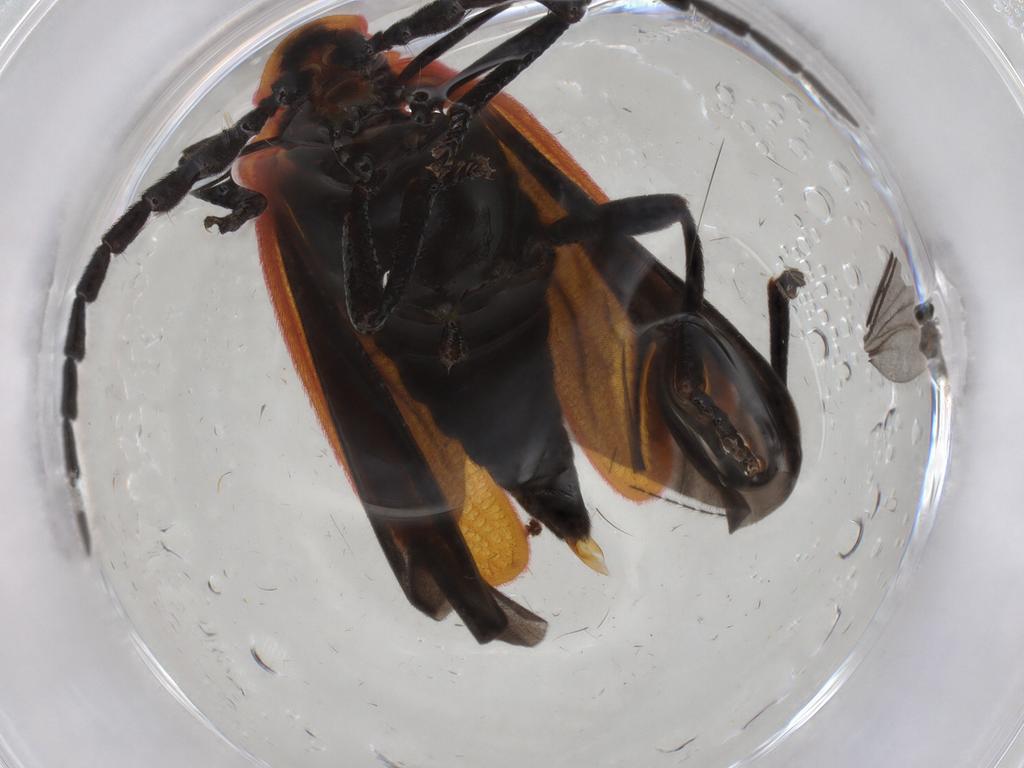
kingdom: Animalia
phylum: Arthropoda
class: Insecta
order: Coleoptera
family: Lycidae
